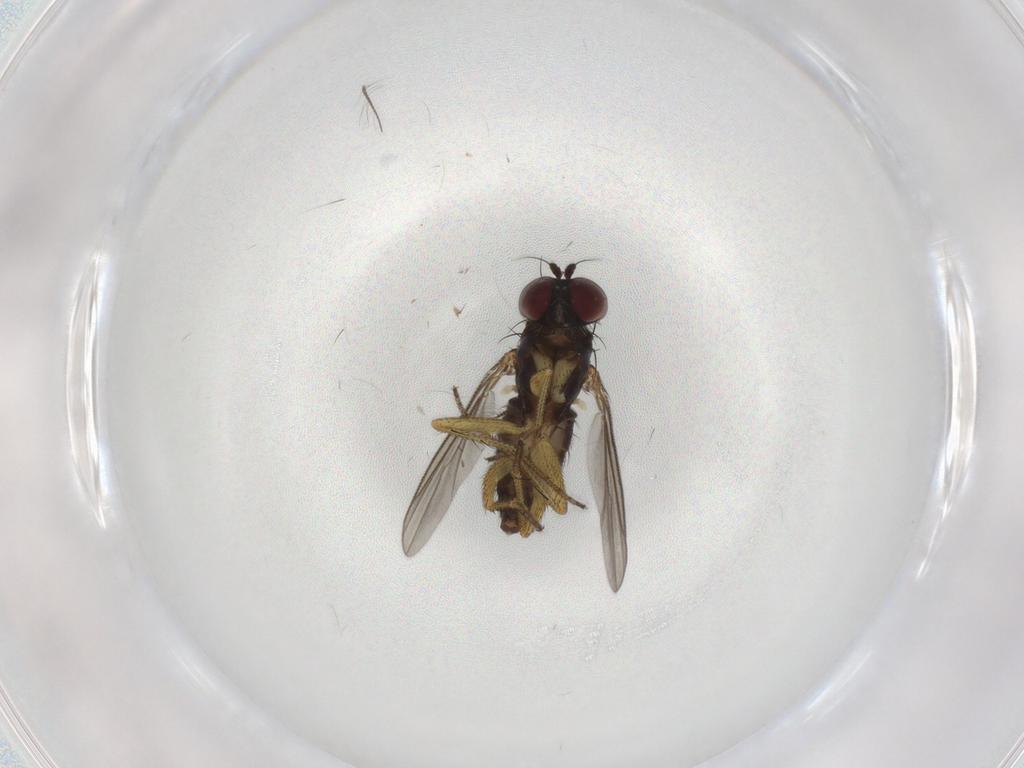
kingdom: Animalia
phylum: Arthropoda
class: Insecta
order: Diptera
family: Dolichopodidae
